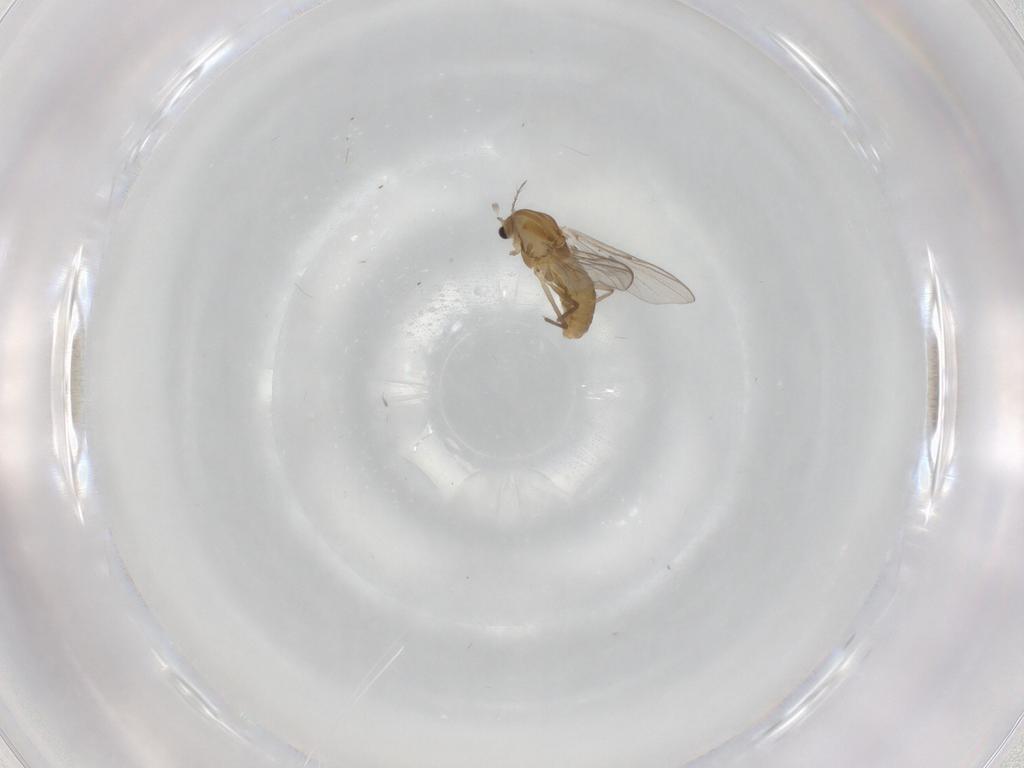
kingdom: Animalia
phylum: Arthropoda
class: Insecta
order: Diptera
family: Chironomidae
